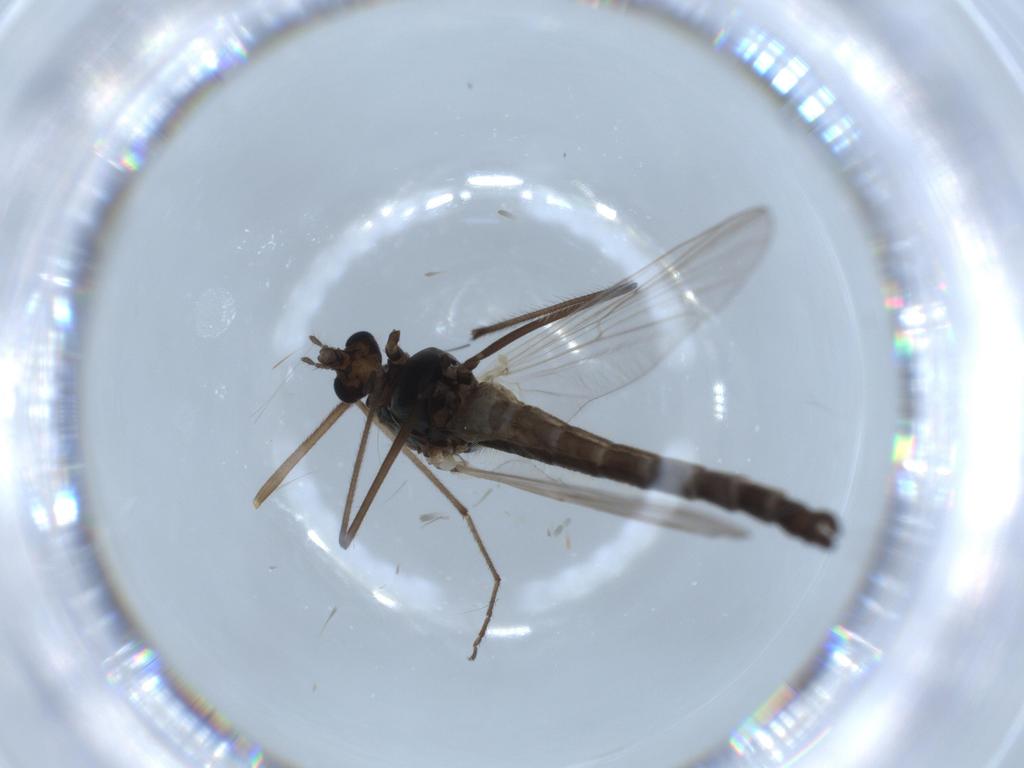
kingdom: Animalia
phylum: Arthropoda
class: Insecta
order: Diptera
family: Chironomidae
